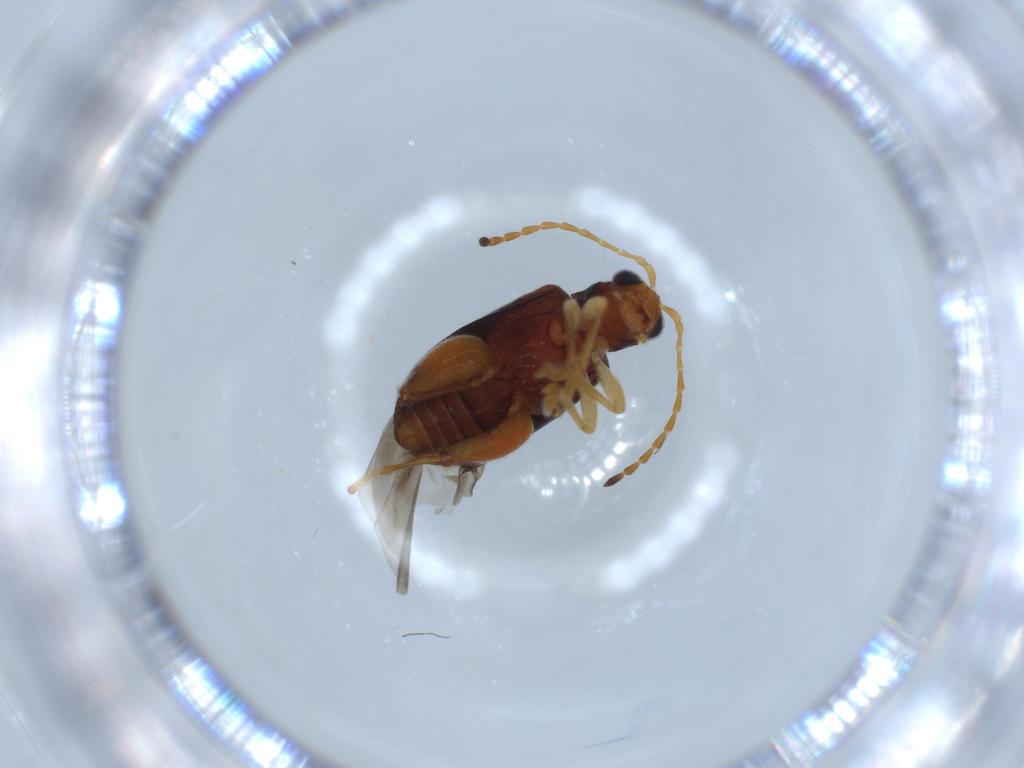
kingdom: Animalia
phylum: Arthropoda
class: Insecta
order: Coleoptera
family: Chrysomelidae
